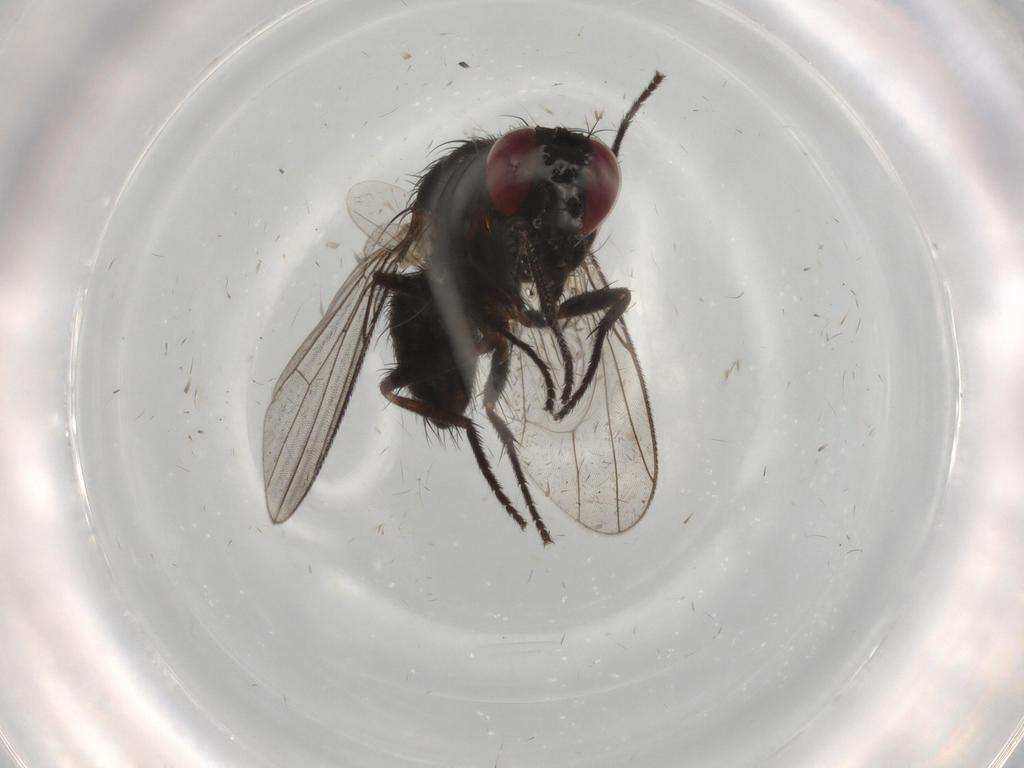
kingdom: Animalia
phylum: Arthropoda
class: Insecta
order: Diptera
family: Muscidae
